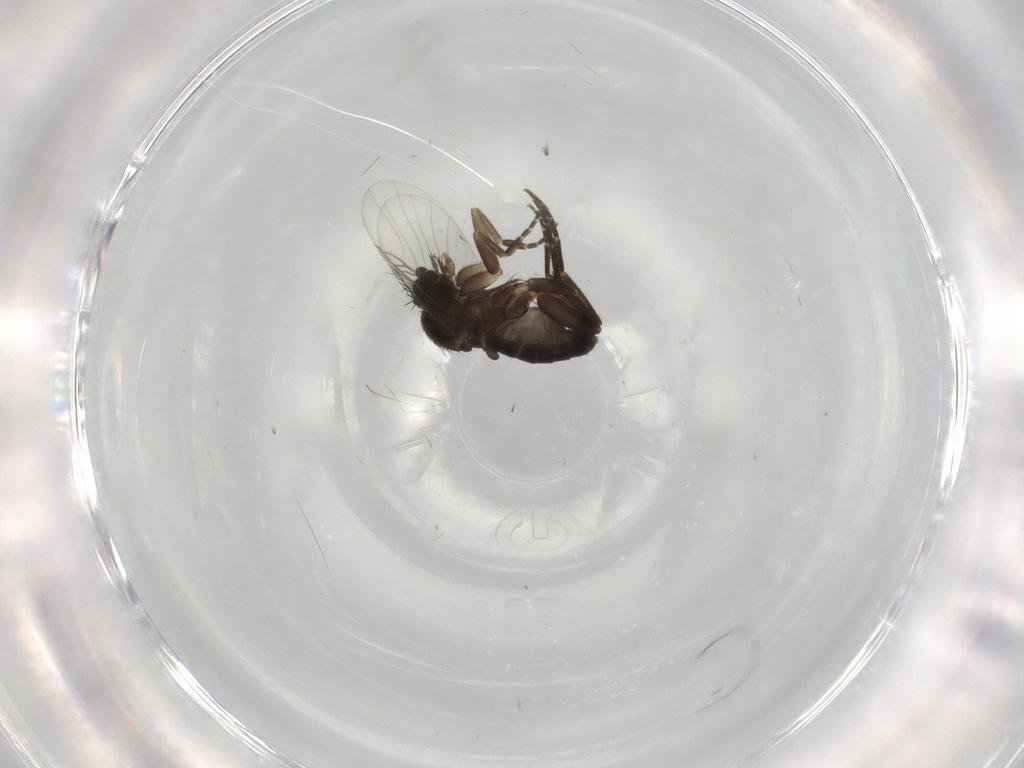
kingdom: Animalia
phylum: Arthropoda
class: Insecta
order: Diptera
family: Phoridae
